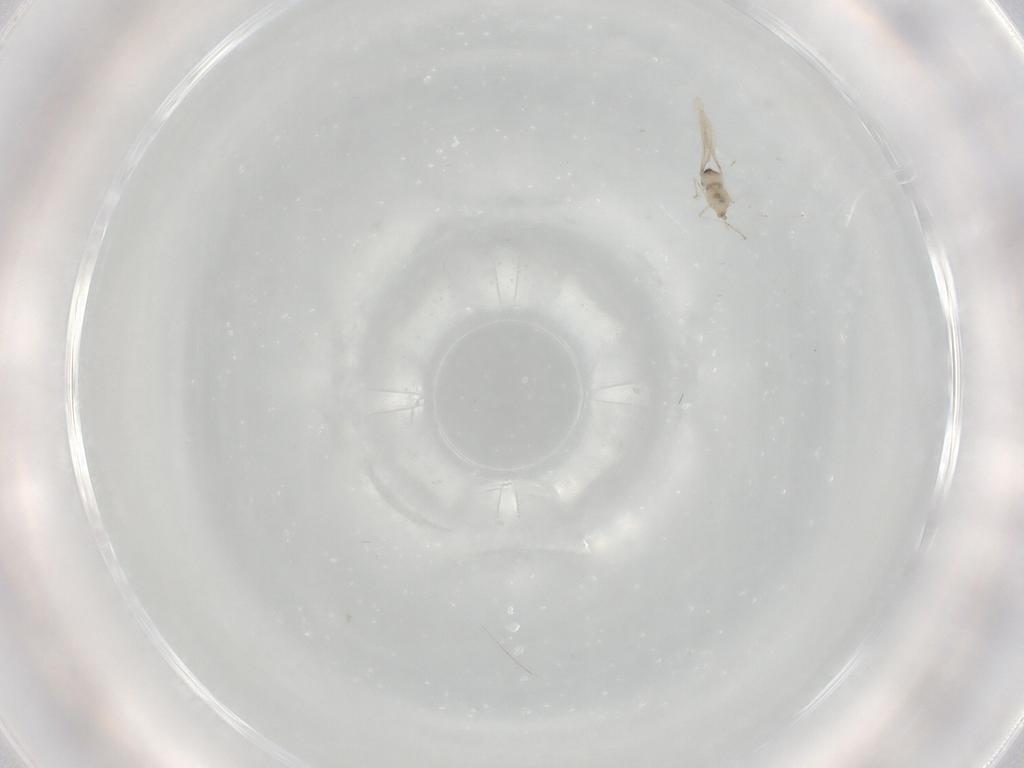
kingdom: Animalia
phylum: Arthropoda
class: Insecta
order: Diptera
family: Cecidomyiidae
